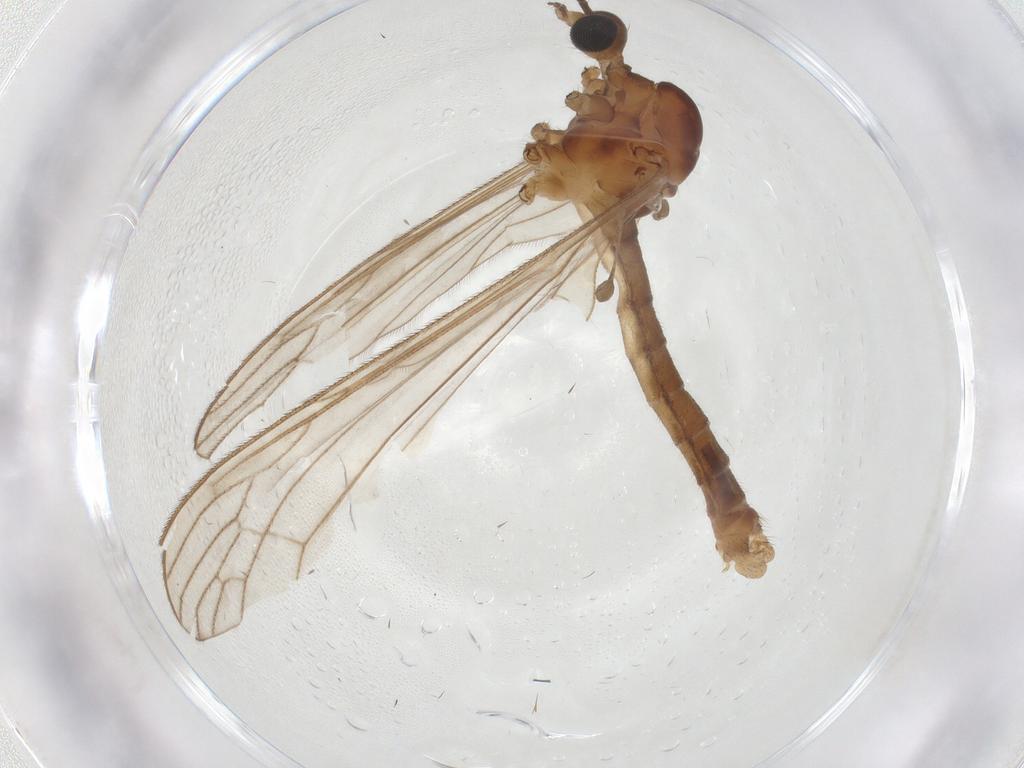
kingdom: Animalia
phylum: Arthropoda
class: Insecta
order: Diptera
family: Limoniidae
